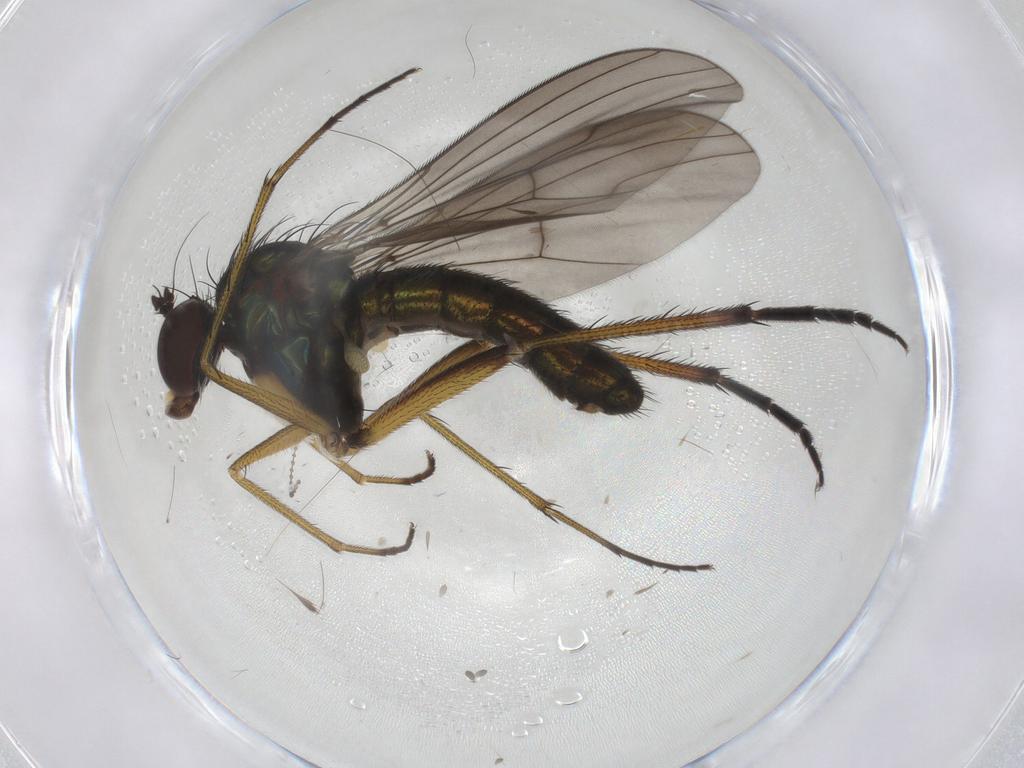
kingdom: Animalia
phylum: Arthropoda
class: Insecta
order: Diptera
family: Dolichopodidae
